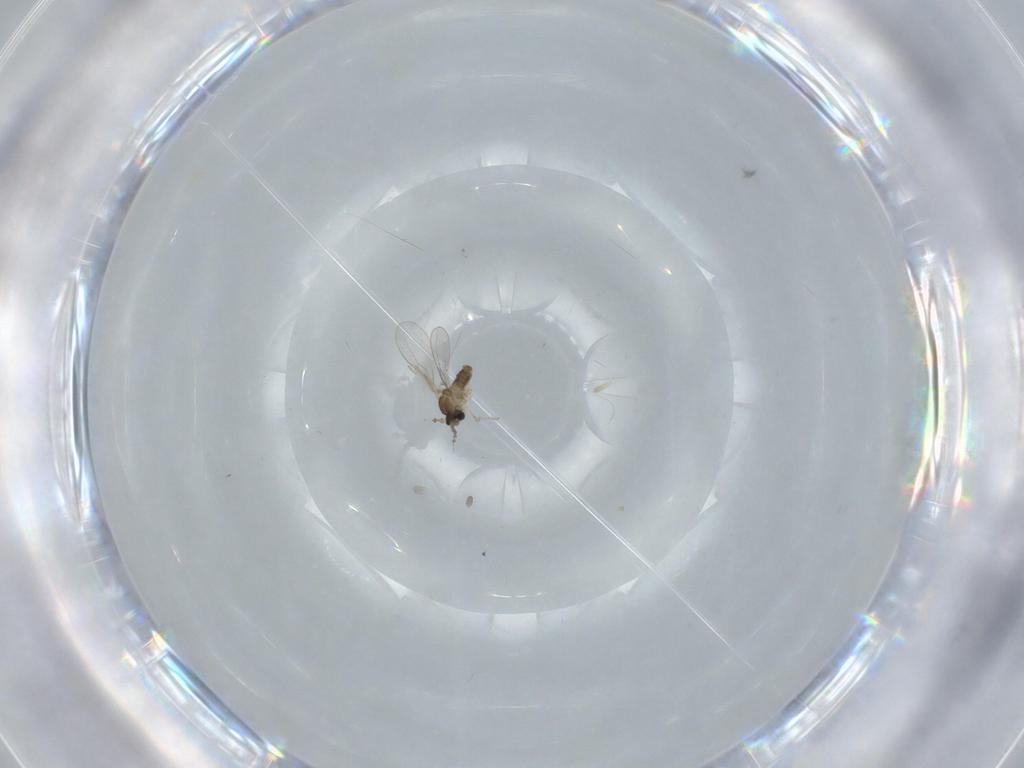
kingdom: Animalia
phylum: Arthropoda
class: Insecta
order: Diptera
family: Cecidomyiidae
